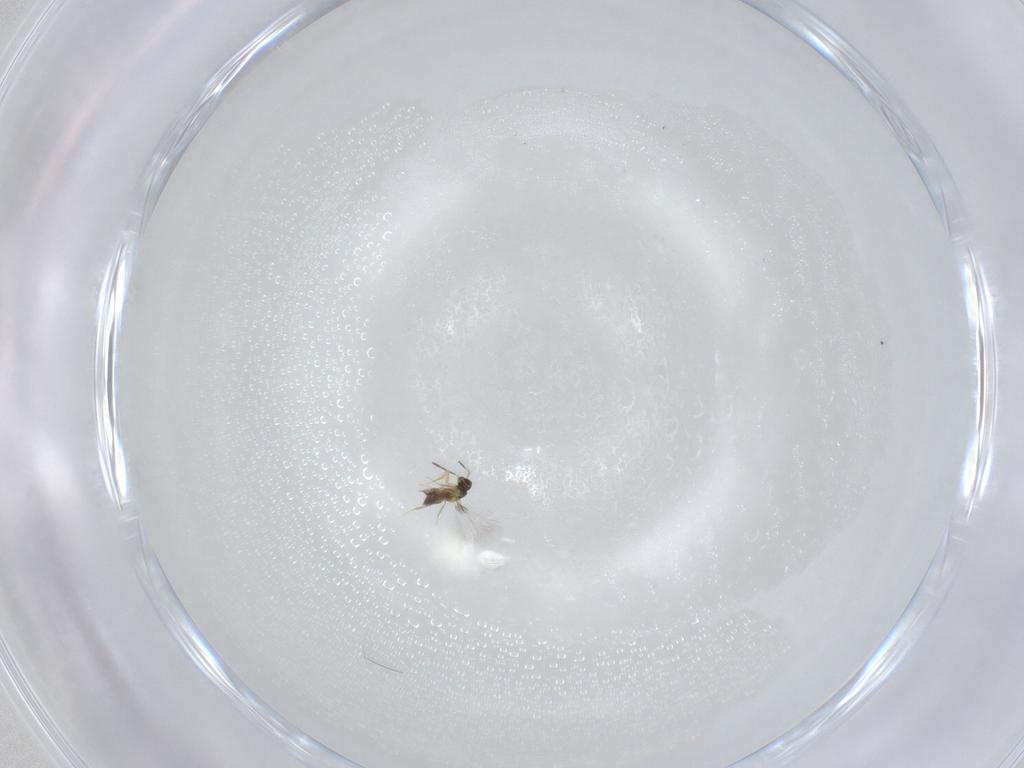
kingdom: Animalia
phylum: Arthropoda
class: Insecta
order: Hymenoptera
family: Mymaridae
